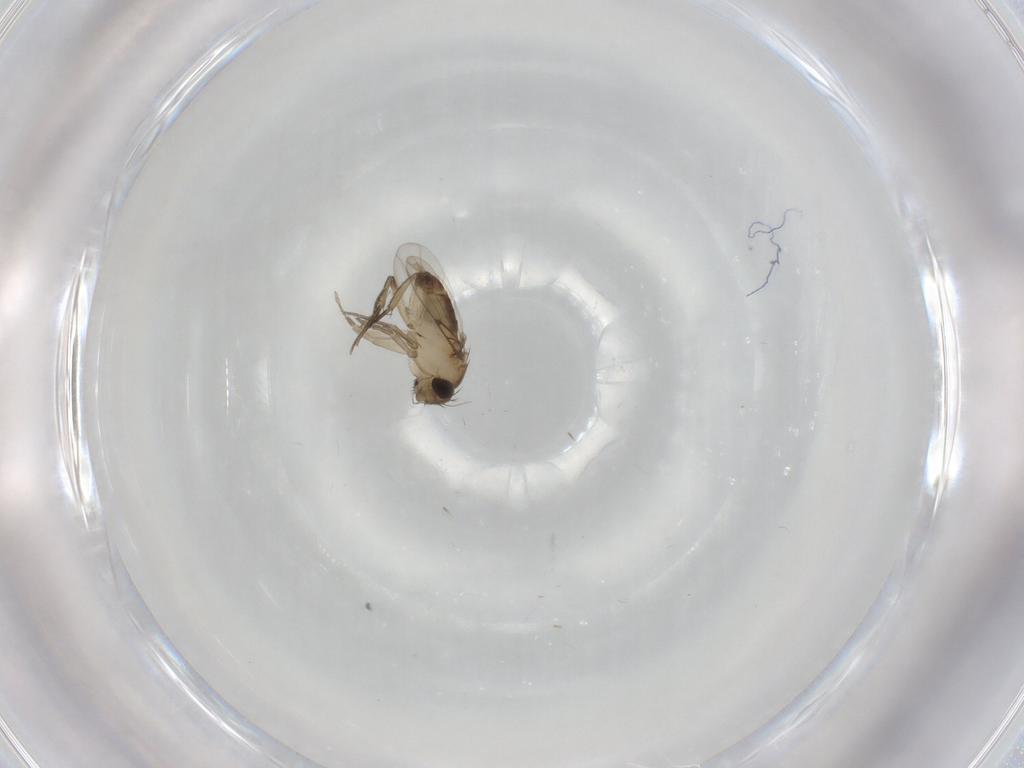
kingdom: Animalia
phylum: Arthropoda
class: Insecta
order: Diptera
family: Phoridae
